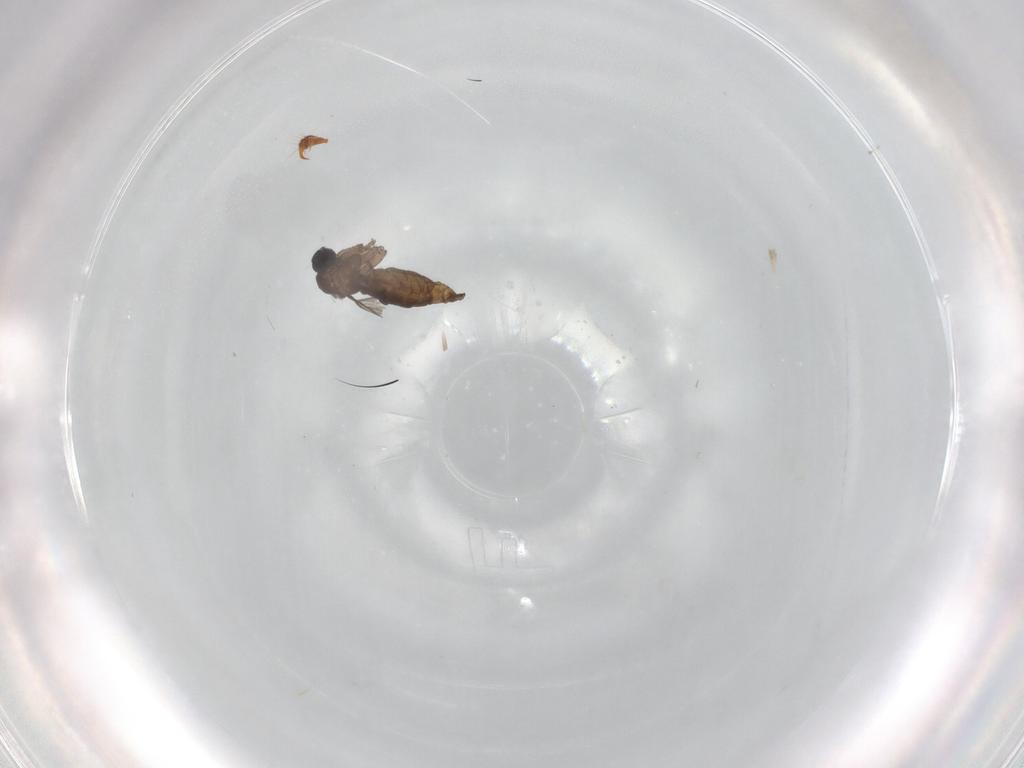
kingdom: Animalia
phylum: Arthropoda
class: Insecta
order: Diptera
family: Sciaridae
